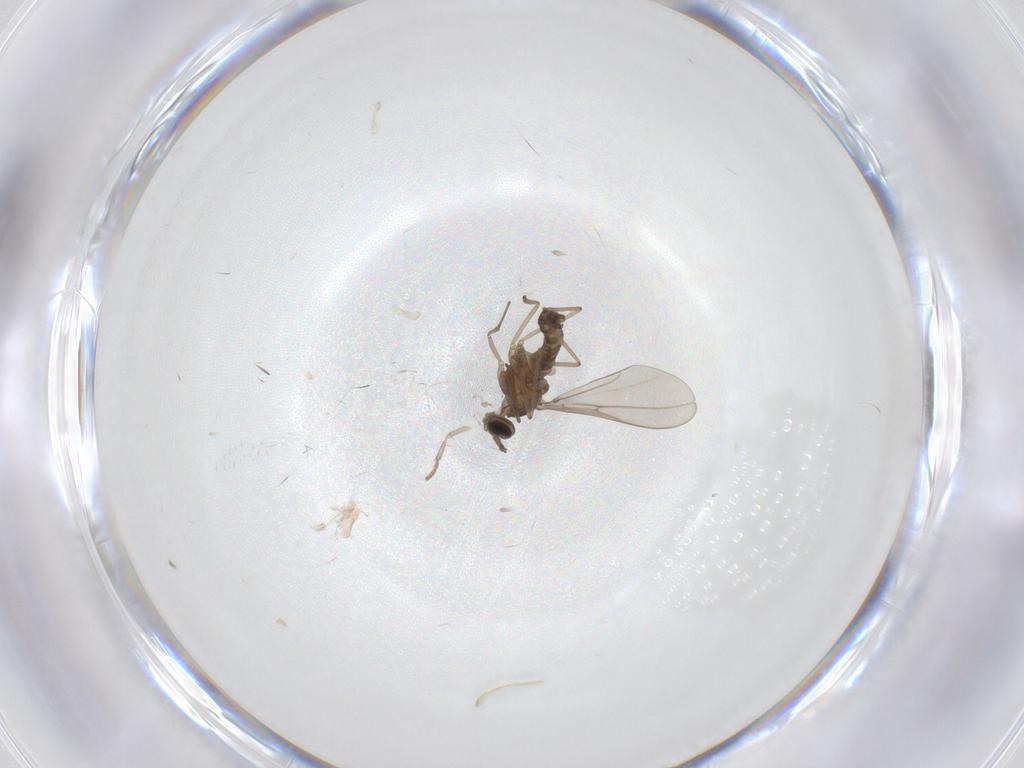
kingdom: Animalia
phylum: Arthropoda
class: Insecta
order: Diptera
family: Cecidomyiidae
